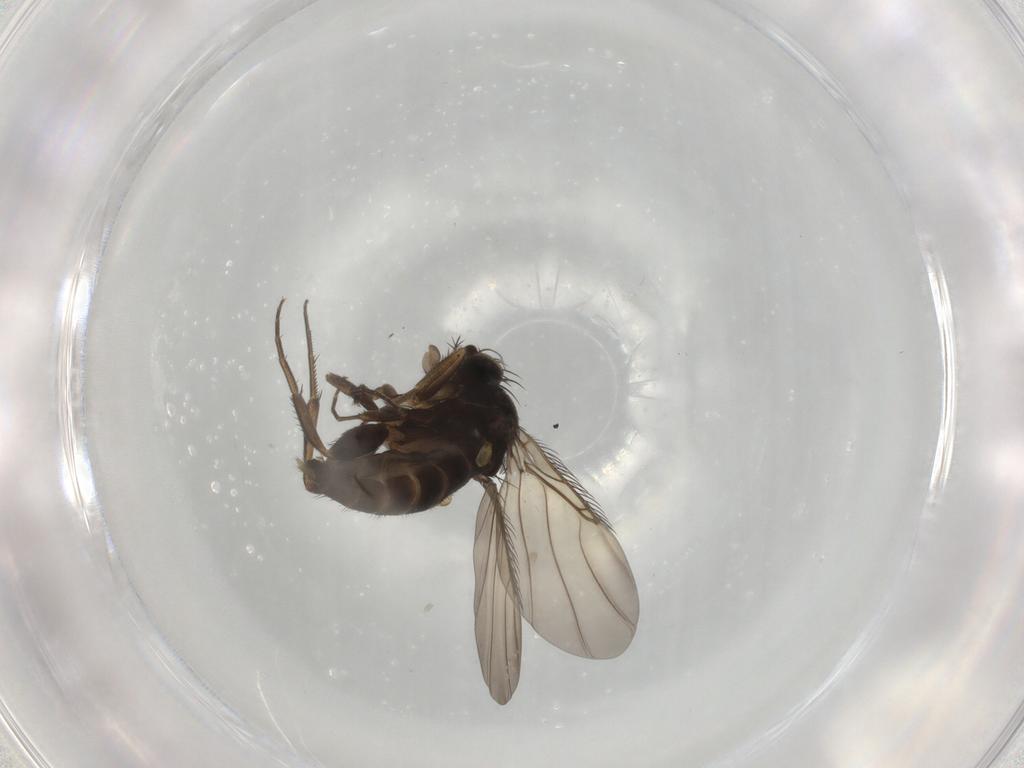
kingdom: Animalia
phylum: Arthropoda
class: Insecta
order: Diptera
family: Phoridae
